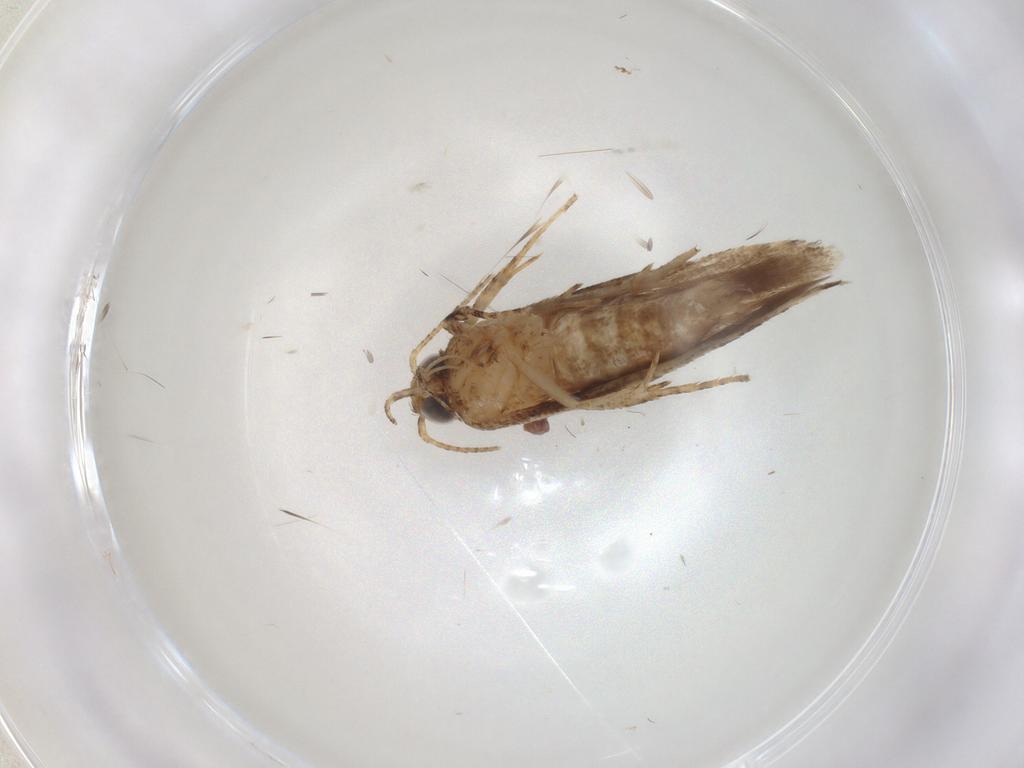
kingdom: Animalia
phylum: Arthropoda
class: Insecta
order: Lepidoptera
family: Gelechiidae
